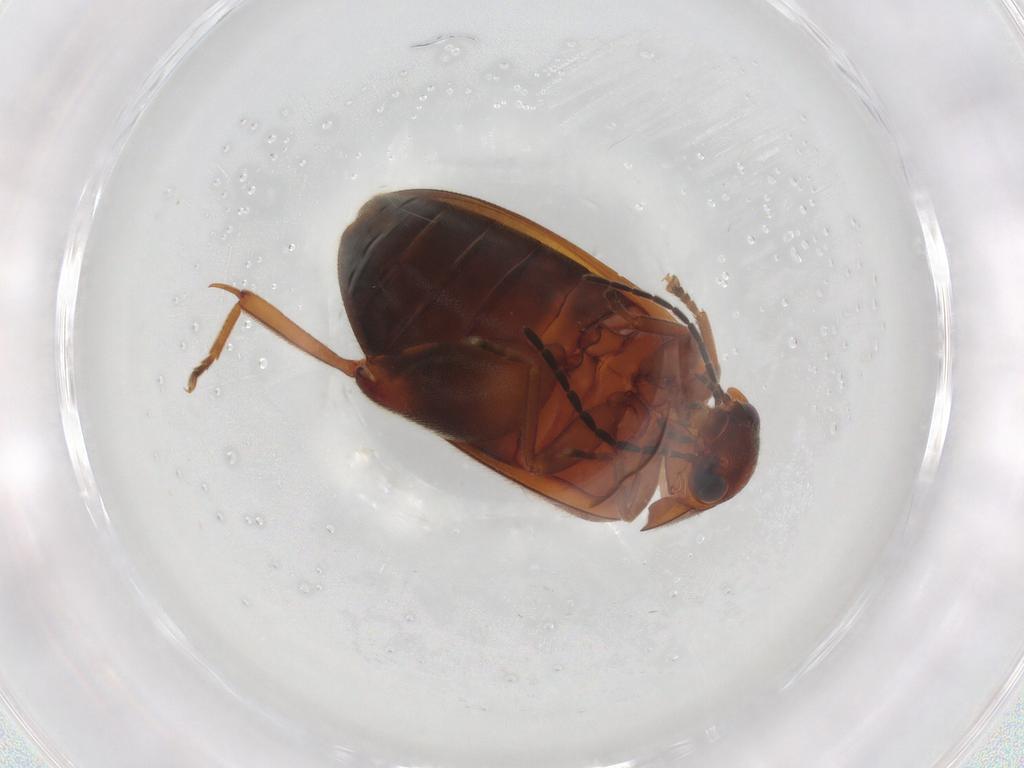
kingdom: Animalia
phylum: Arthropoda
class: Insecta
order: Coleoptera
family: Scirtidae
